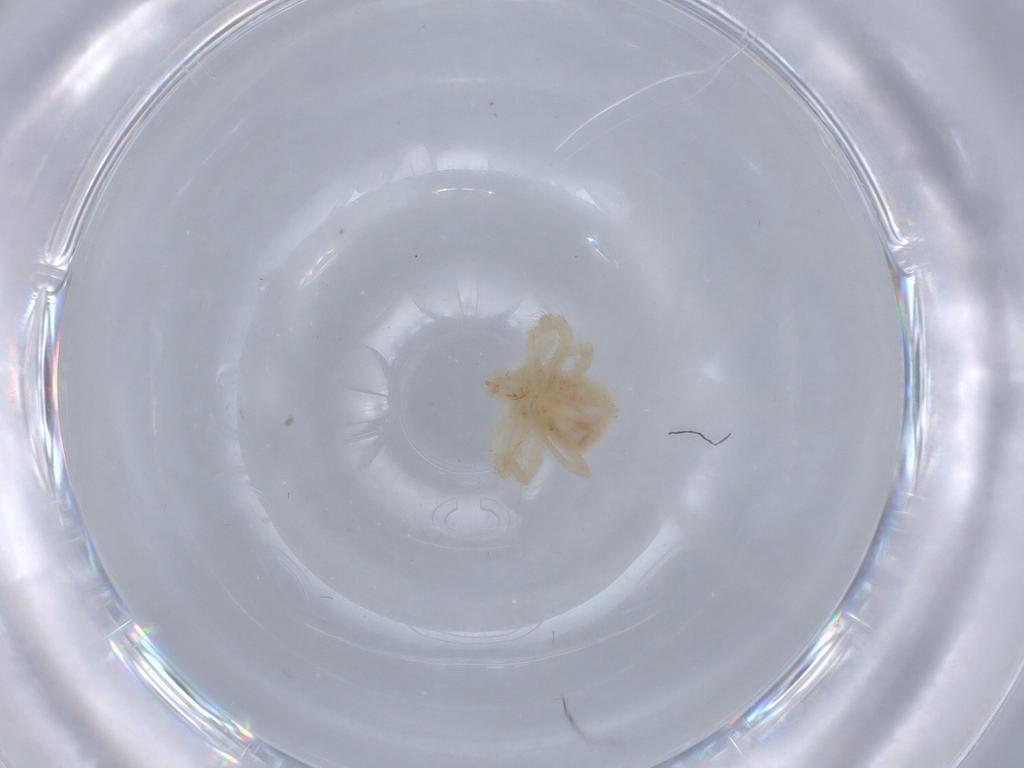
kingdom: Animalia
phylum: Arthropoda
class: Arachnida
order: Trombidiformes
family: Anystidae
